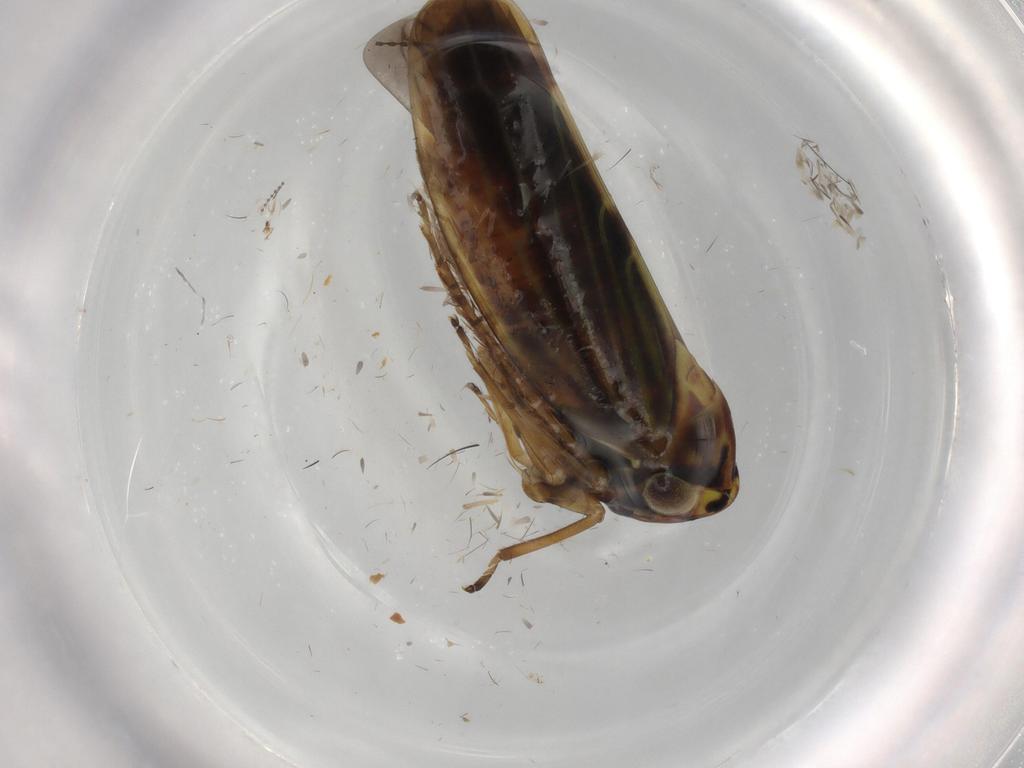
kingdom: Animalia
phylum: Arthropoda
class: Insecta
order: Hemiptera
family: Cicadellidae
